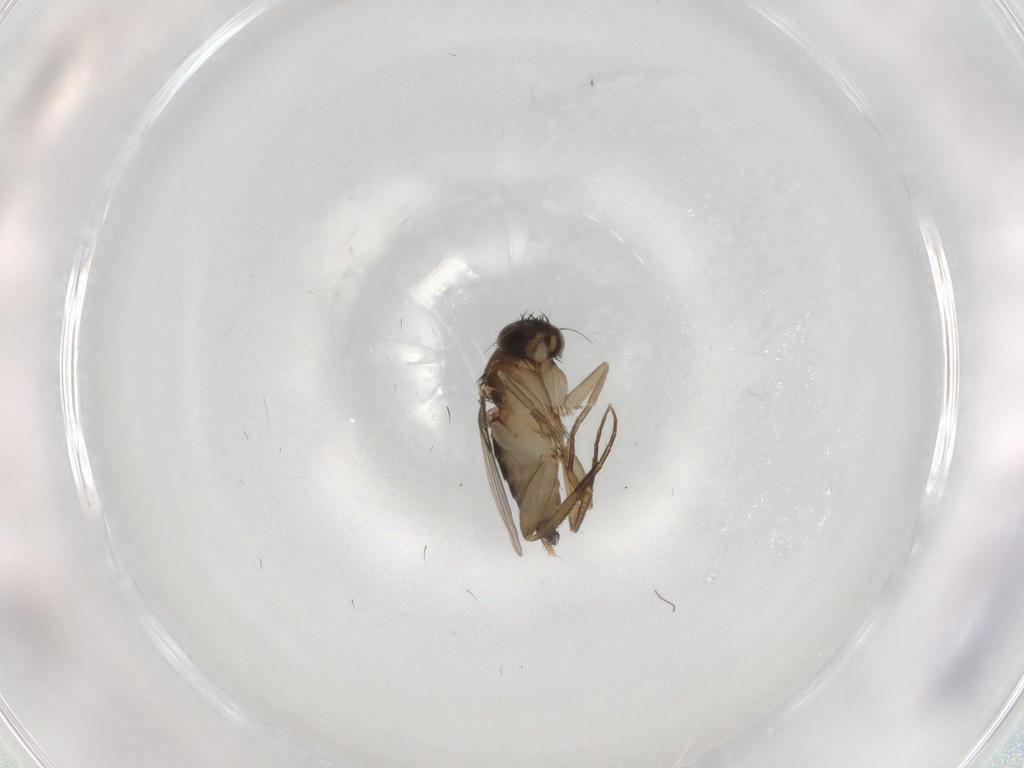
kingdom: Animalia
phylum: Arthropoda
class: Insecta
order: Diptera
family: Phoridae
